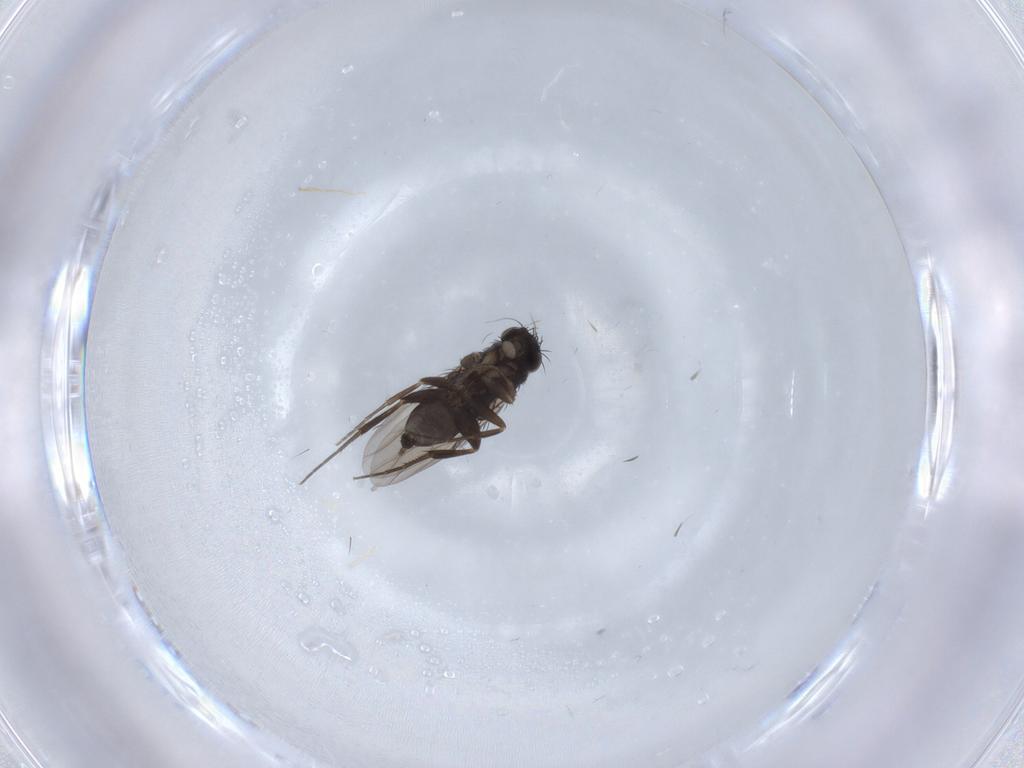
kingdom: Animalia
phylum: Arthropoda
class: Insecta
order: Diptera
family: Phoridae
